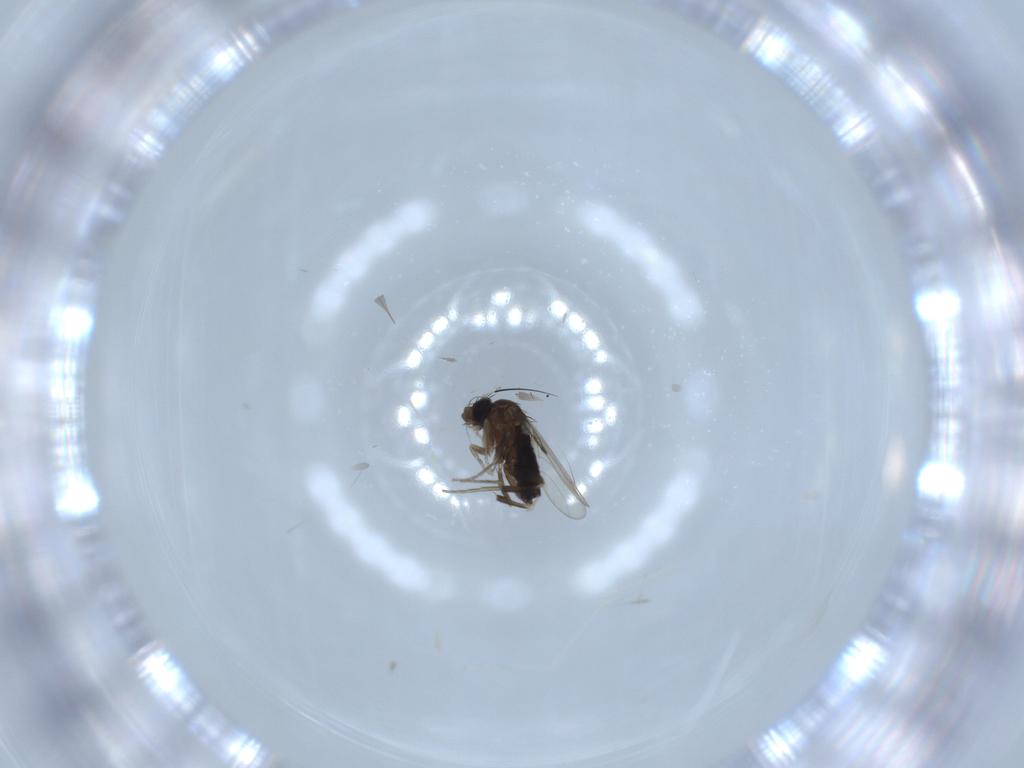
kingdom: Animalia
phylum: Arthropoda
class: Insecta
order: Diptera
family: Phoridae
